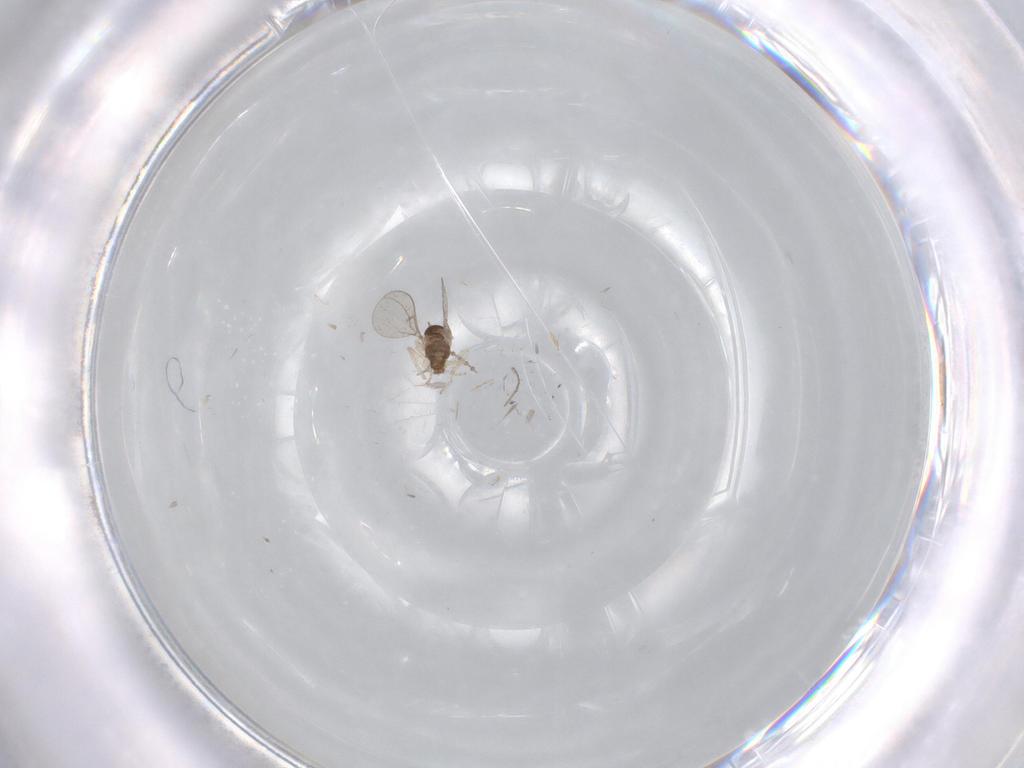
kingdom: Animalia
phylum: Arthropoda
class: Insecta
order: Diptera
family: Cecidomyiidae
